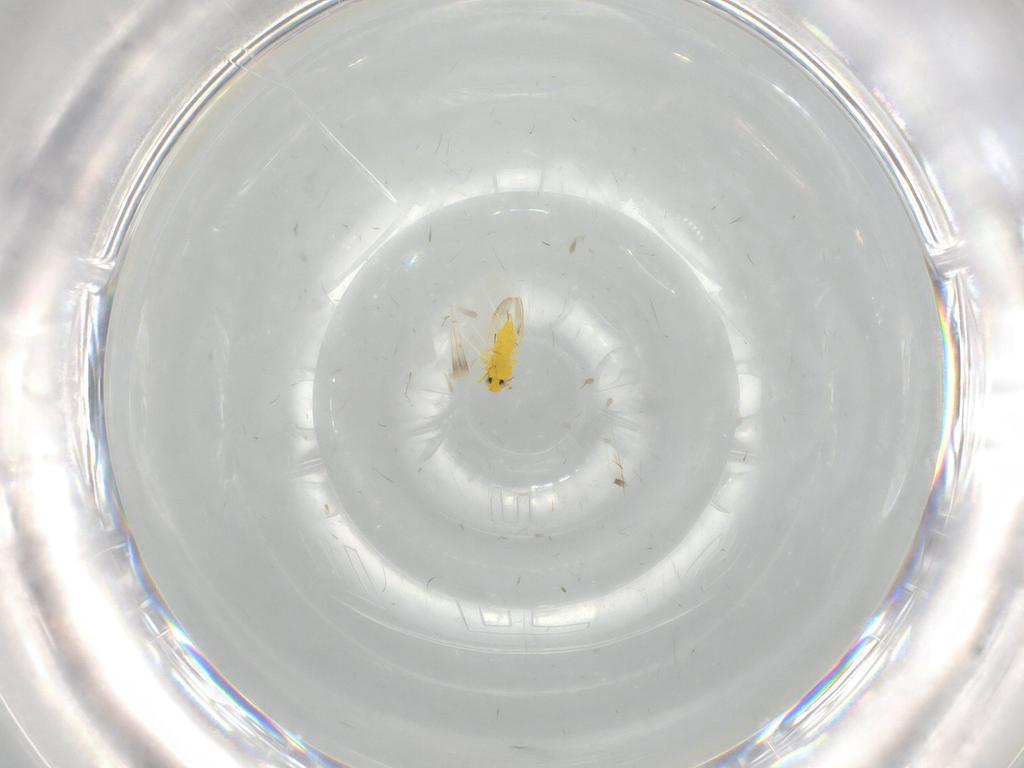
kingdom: Animalia
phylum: Arthropoda
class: Insecta
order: Hemiptera
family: Aleyrodidae
